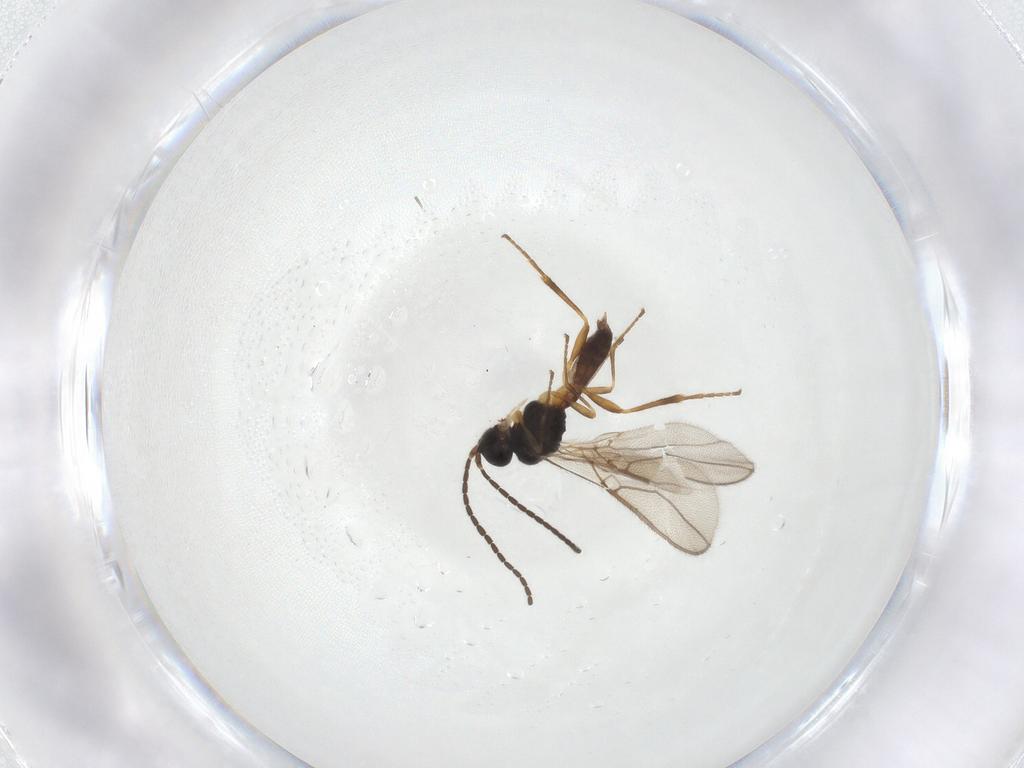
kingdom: Animalia
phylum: Arthropoda
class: Insecta
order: Hymenoptera
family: Braconidae
